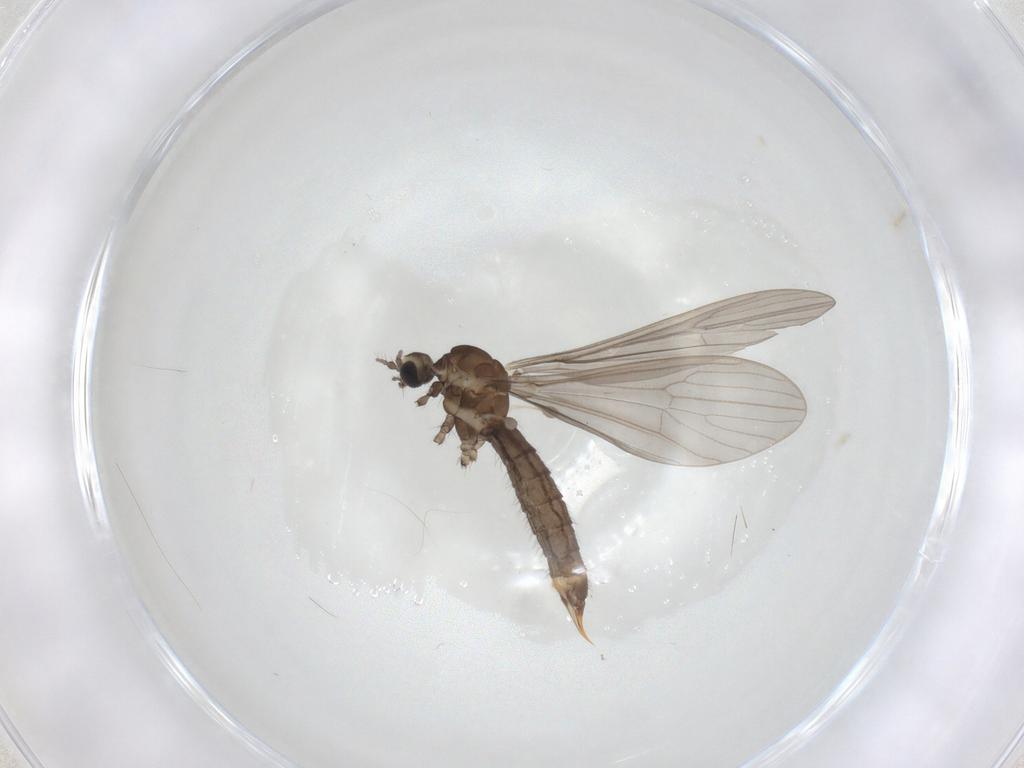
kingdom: Animalia
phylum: Arthropoda
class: Insecta
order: Diptera
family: Limoniidae
